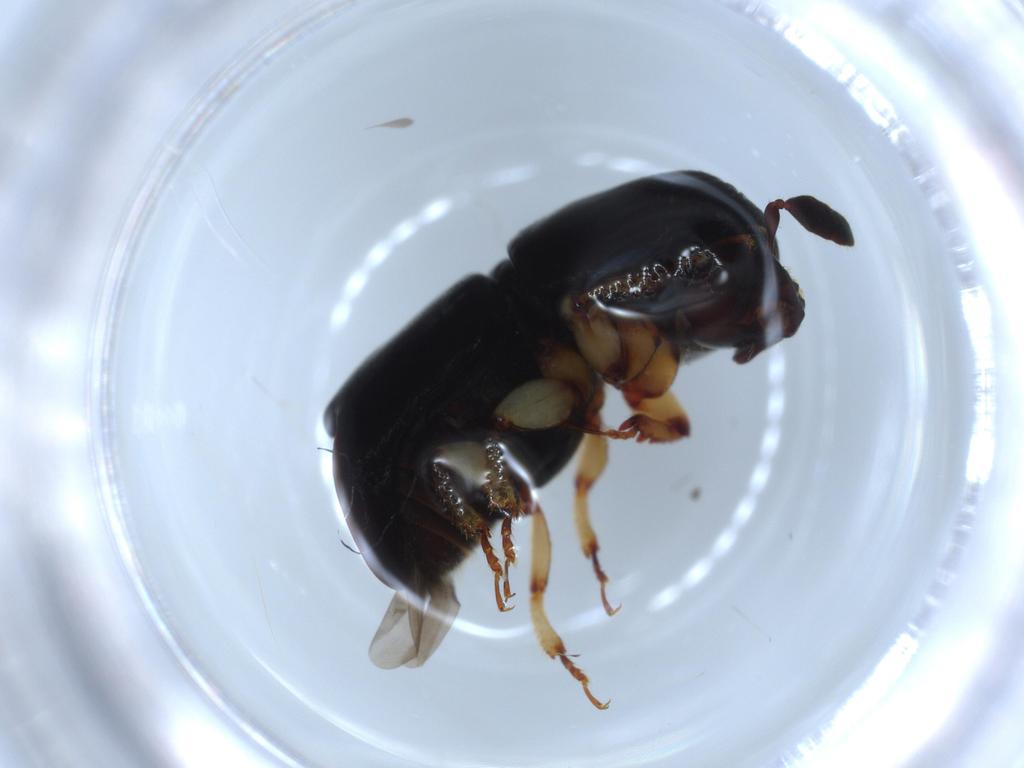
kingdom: Animalia
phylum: Arthropoda
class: Insecta
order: Coleoptera
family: Curculionidae
